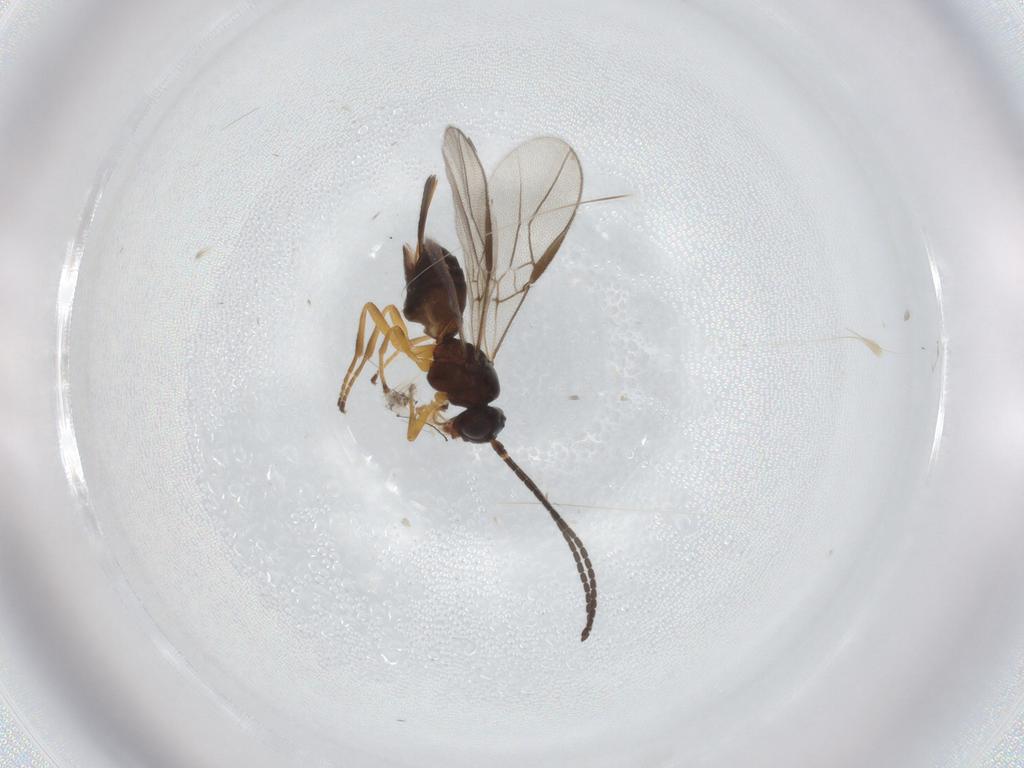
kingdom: Animalia
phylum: Arthropoda
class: Insecta
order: Hymenoptera
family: Braconidae
